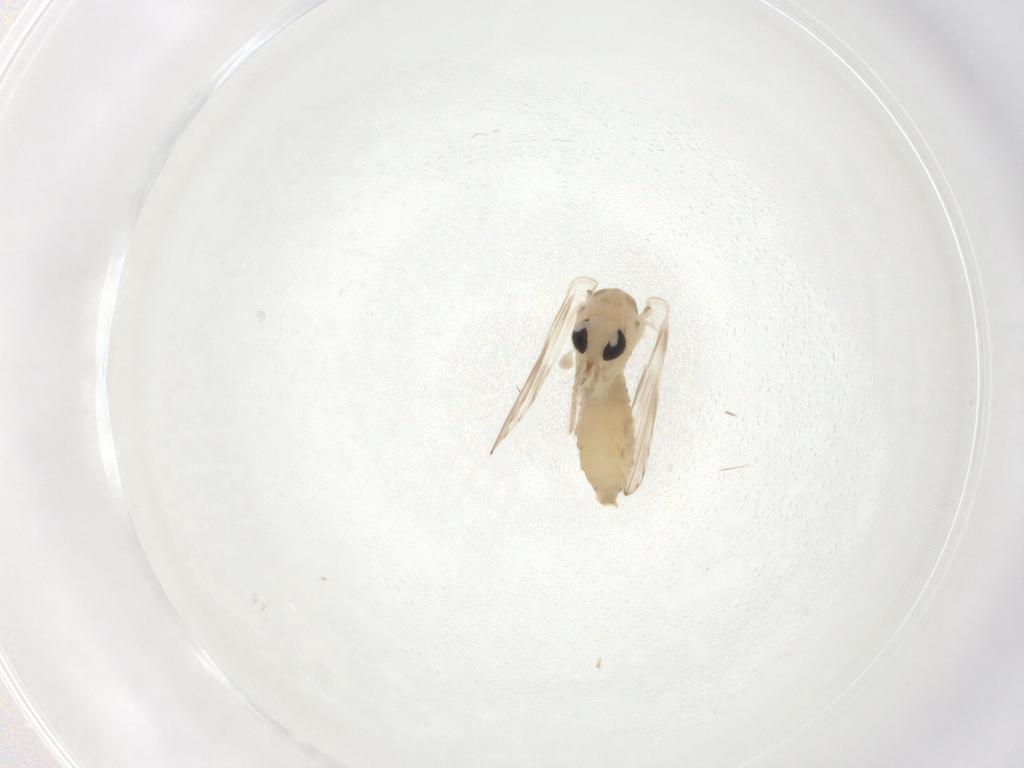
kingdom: Animalia
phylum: Arthropoda
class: Insecta
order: Diptera
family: Psychodidae
